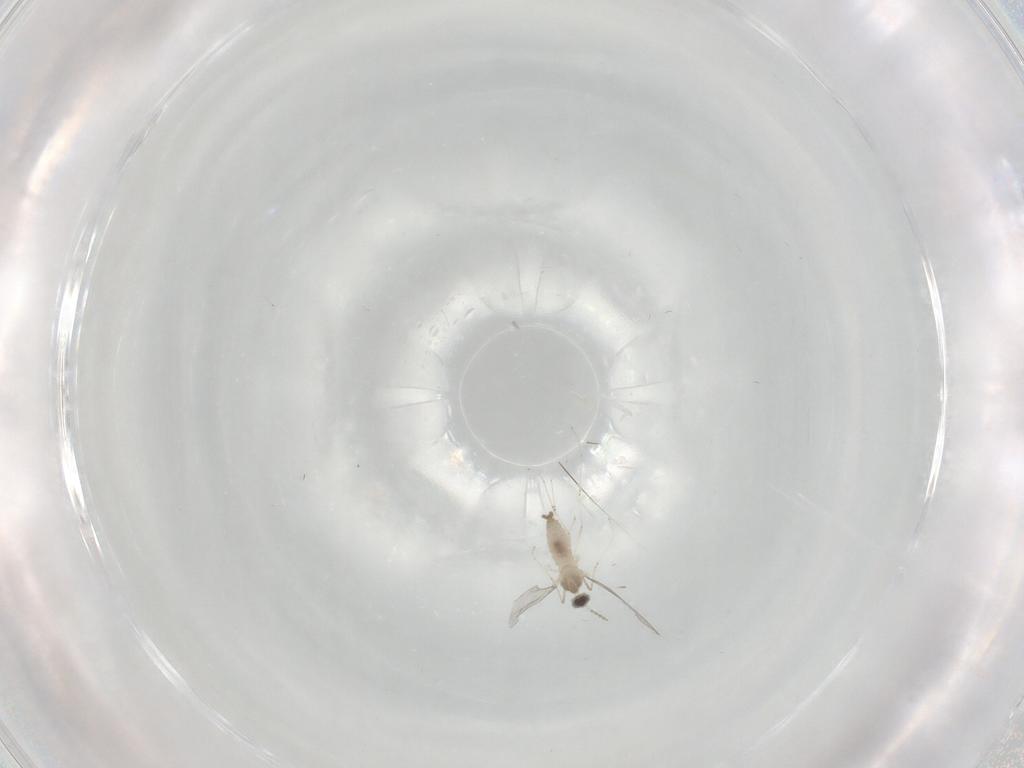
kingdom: Animalia
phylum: Arthropoda
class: Insecta
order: Diptera
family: Cecidomyiidae
